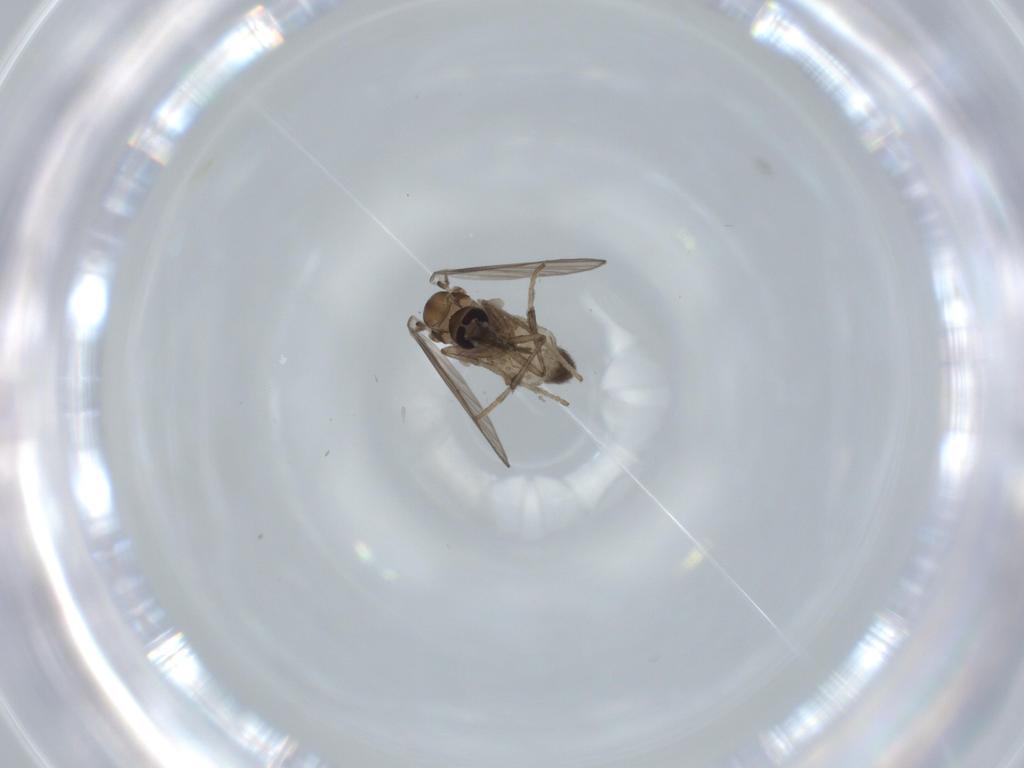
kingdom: Animalia
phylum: Arthropoda
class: Insecta
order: Diptera
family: Psychodidae
